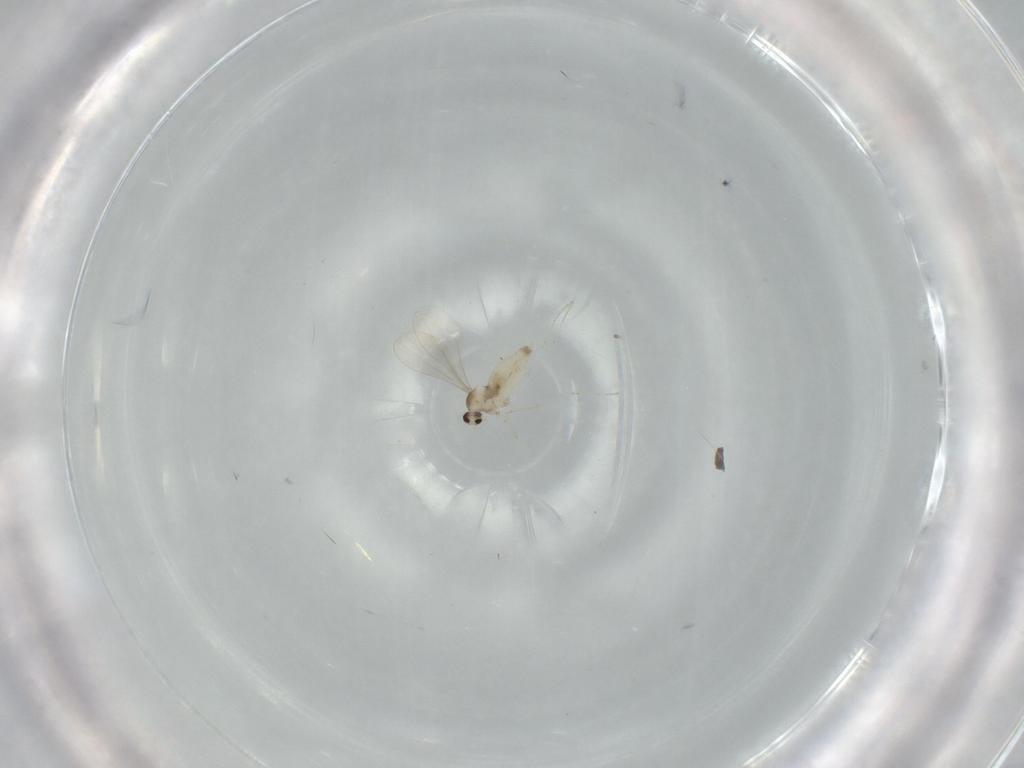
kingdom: Animalia
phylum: Arthropoda
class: Insecta
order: Diptera
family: Cecidomyiidae
